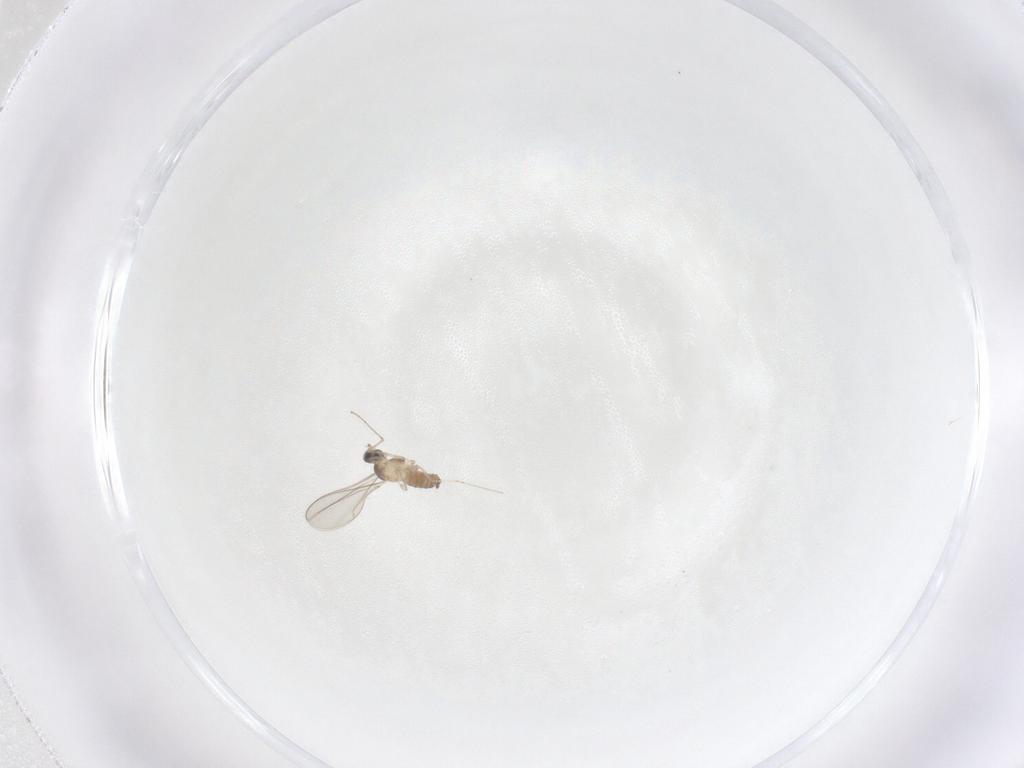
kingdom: Animalia
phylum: Arthropoda
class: Insecta
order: Diptera
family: Cecidomyiidae
